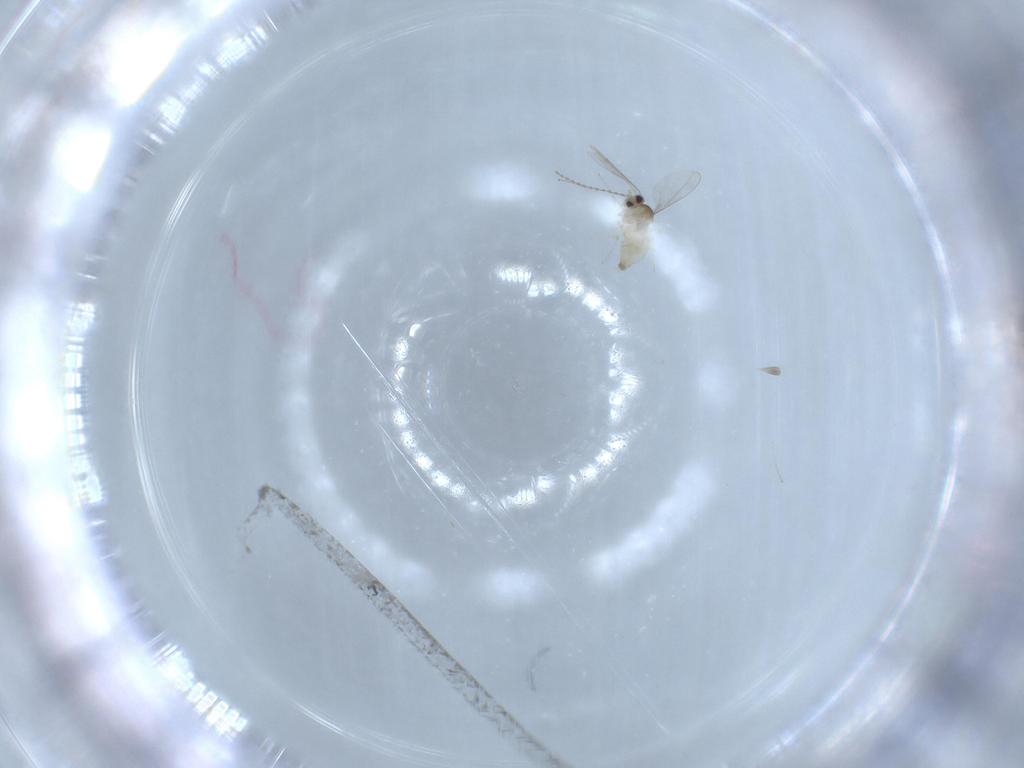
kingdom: Animalia
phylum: Arthropoda
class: Insecta
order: Diptera
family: Cecidomyiidae
